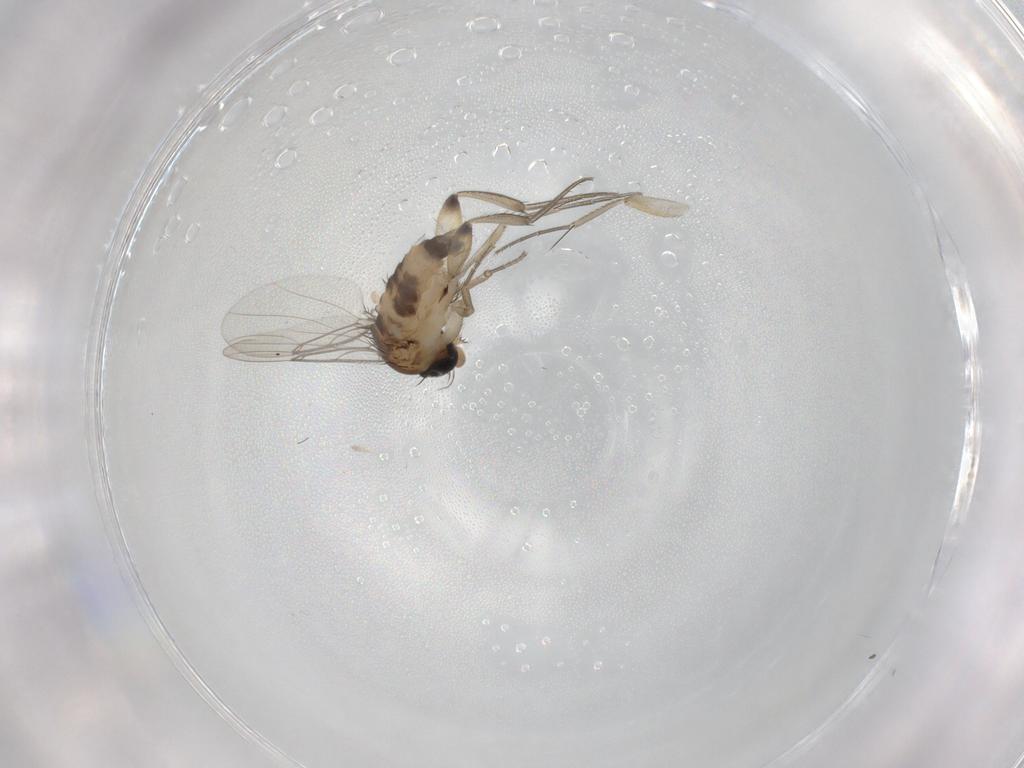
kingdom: Animalia
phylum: Arthropoda
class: Insecta
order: Diptera
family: Phoridae
